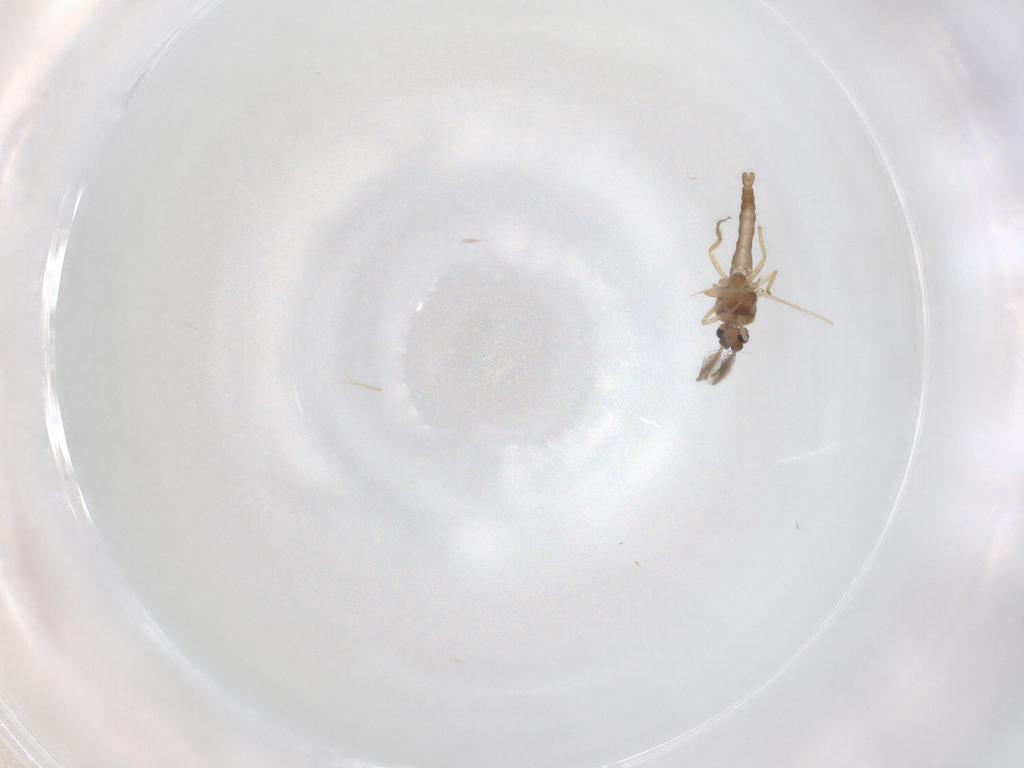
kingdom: Animalia
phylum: Arthropoda
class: Insecta
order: Diptera
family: Ceratopogonidae
